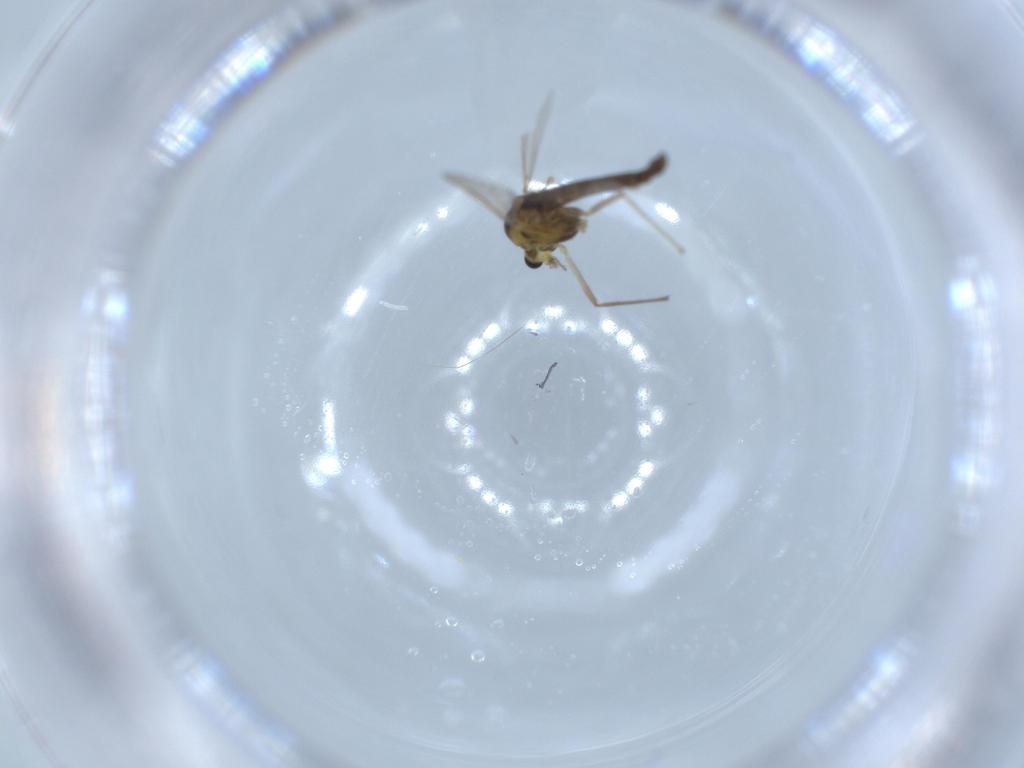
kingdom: Animalia
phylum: Arthropoda
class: Insecta
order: Diptera
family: Chironomidae
